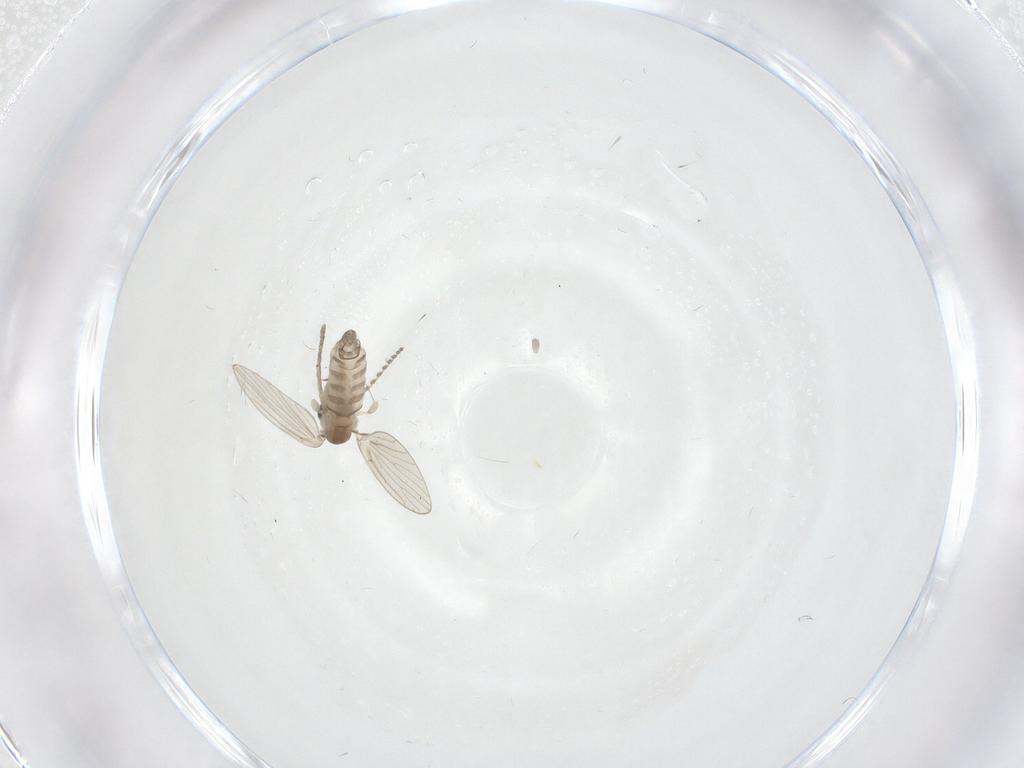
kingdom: Animalia
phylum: Arthropoda
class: Insecta
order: Diptera
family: Psychodidae
